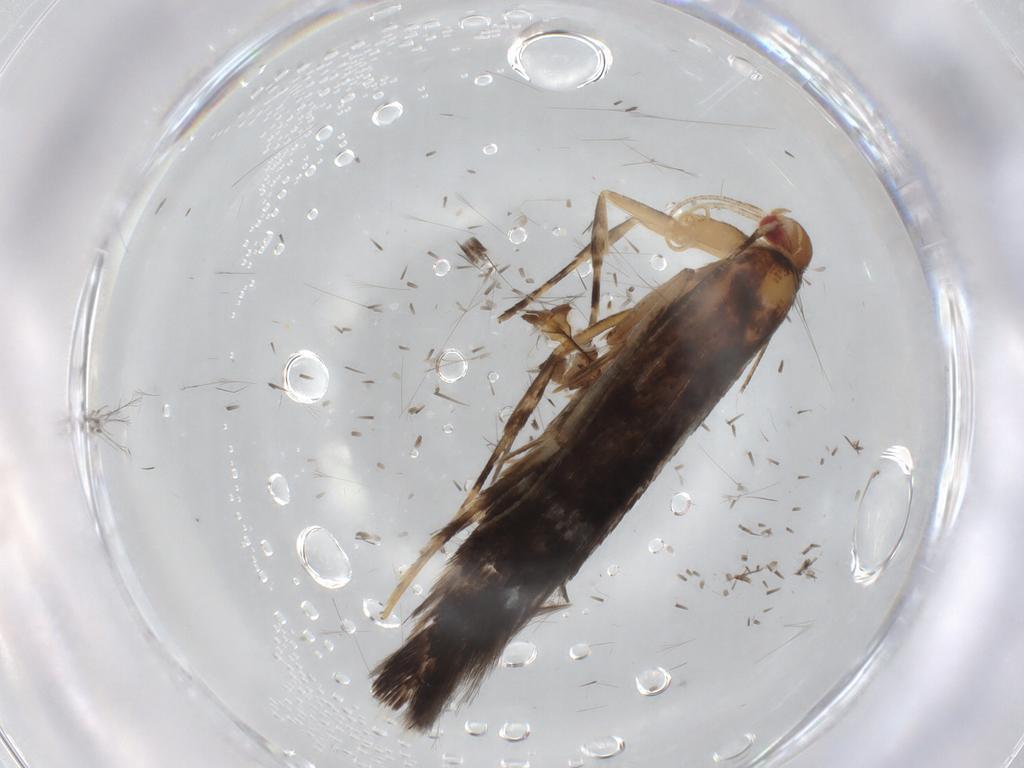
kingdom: Animalia
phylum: Arthropoda
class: Insecta
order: Lepidoptera
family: Cosmopterigidae
